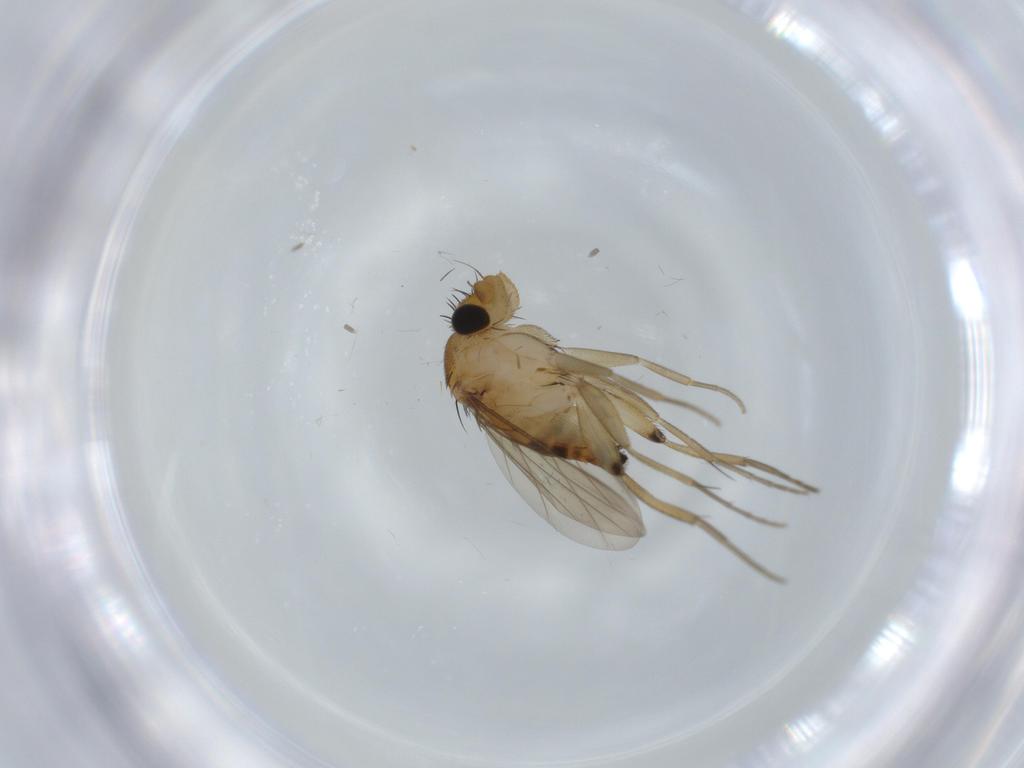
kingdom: Animalia
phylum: Arthropoda
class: Insecta
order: Diptera
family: Phoridae
